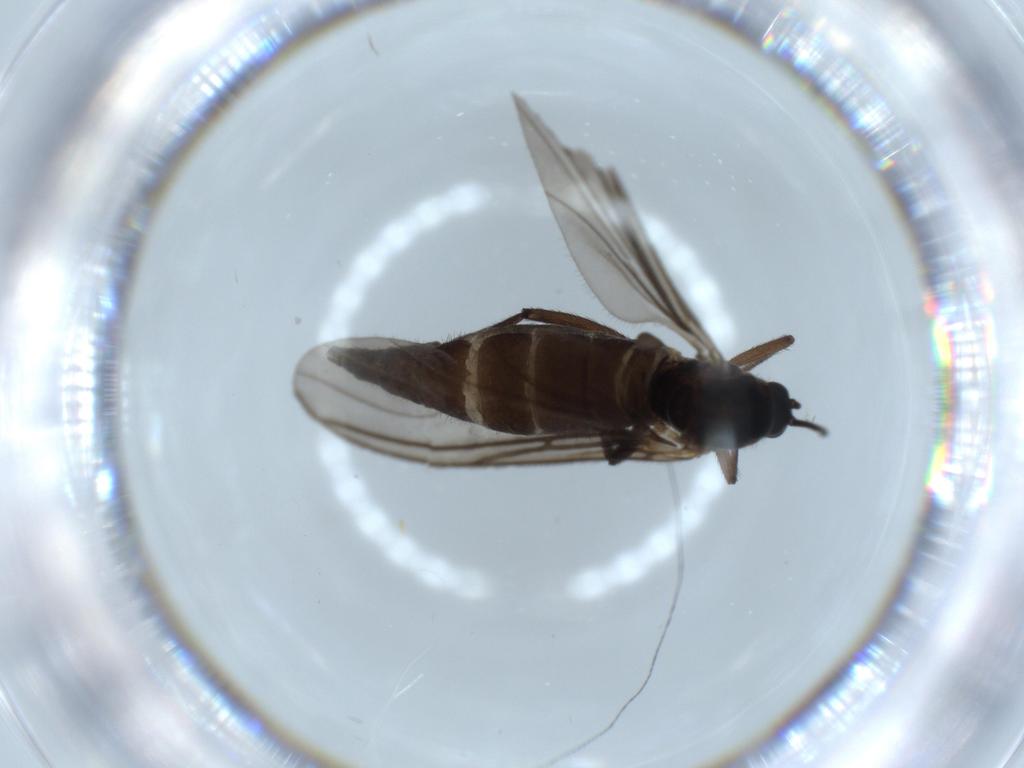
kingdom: Animalia
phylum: Arthropoda
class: Insecta
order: Diptera
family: Sciaridae
